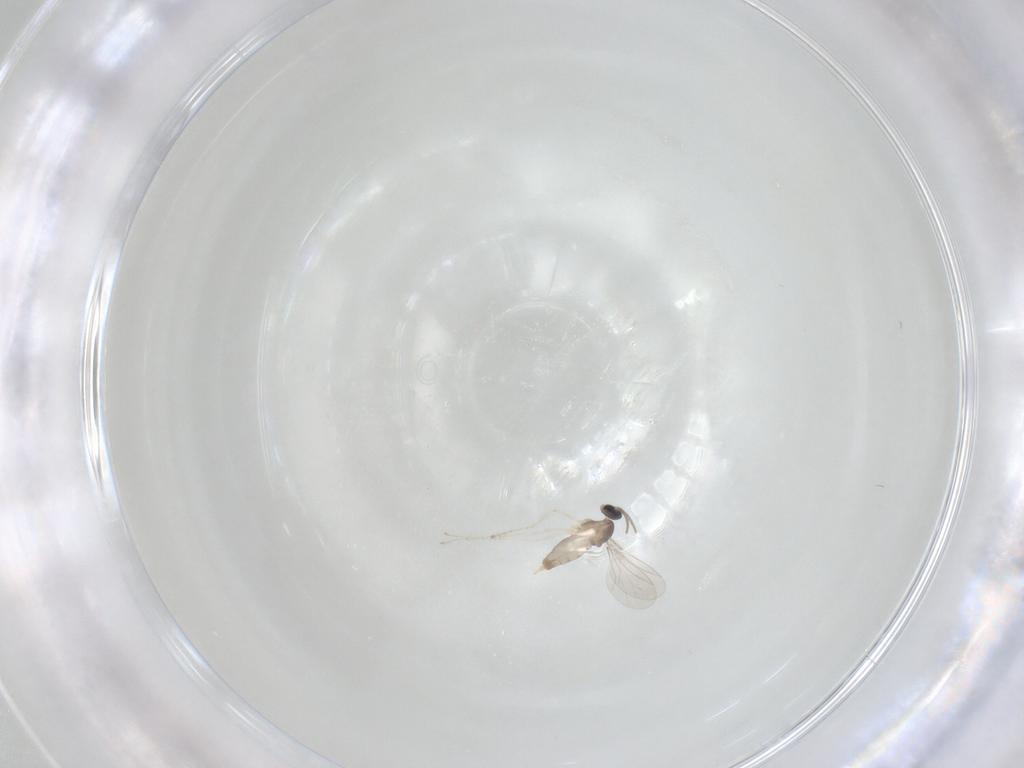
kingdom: Animalia
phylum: Arthropoda
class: Insecta
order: Diptera
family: Cecidomyiidae
